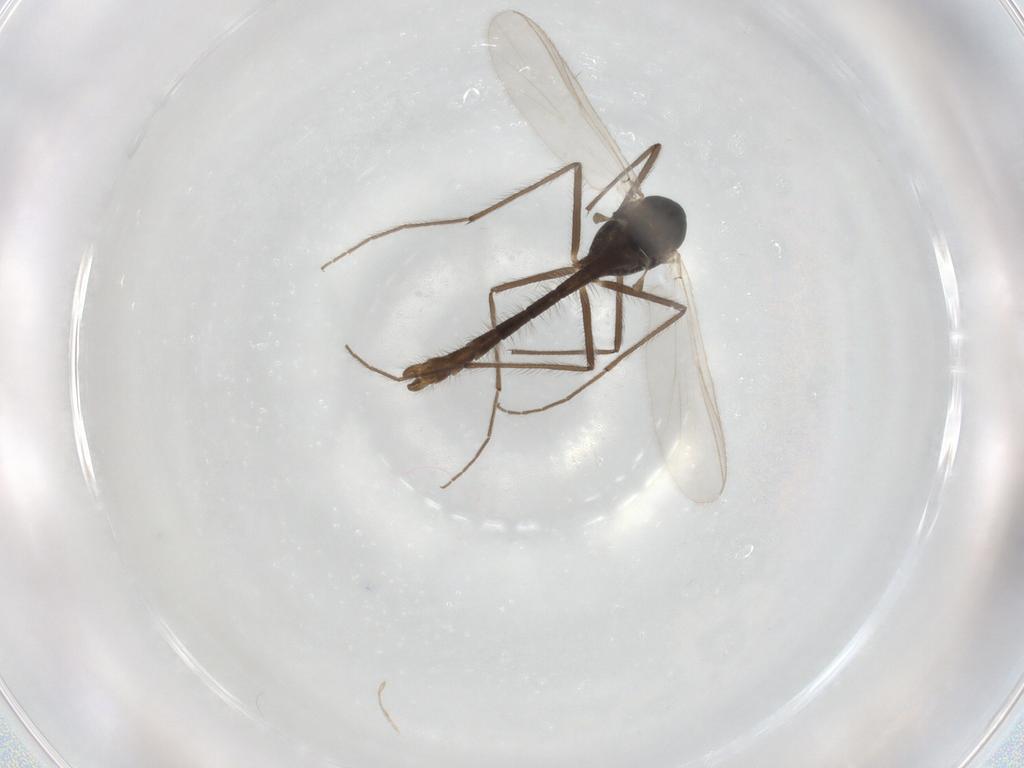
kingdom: Animalia
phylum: Arthropoda
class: Insecta
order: Diptera
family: Chironomidae
